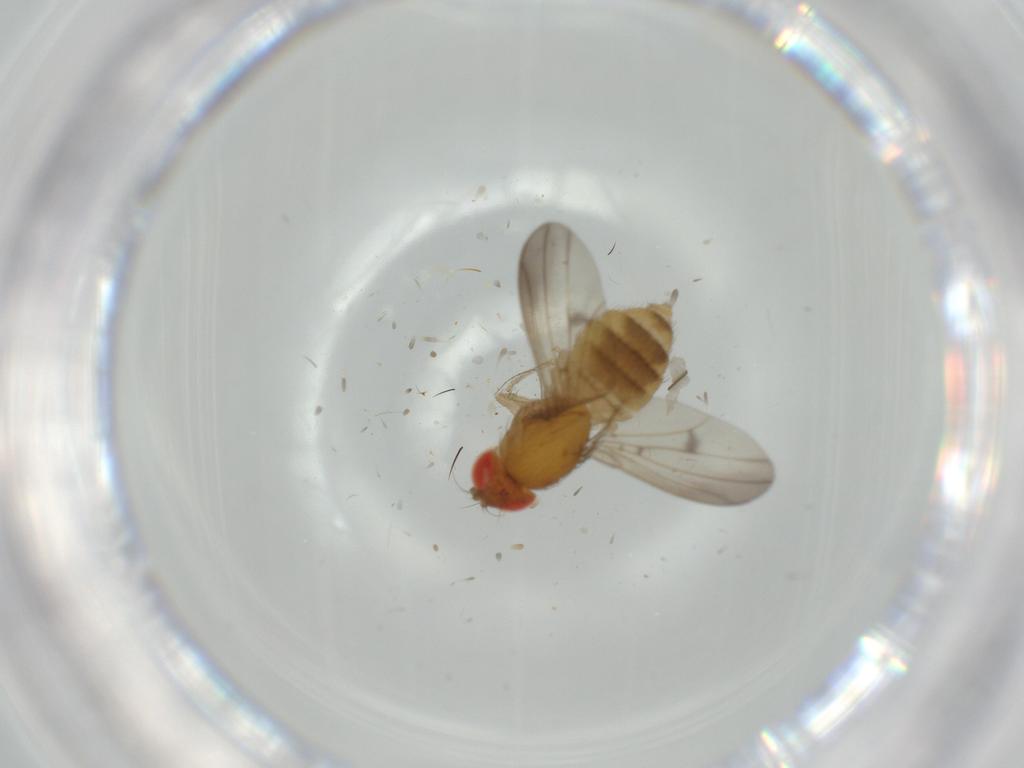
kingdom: Animalia
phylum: Arthropoda
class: Insecta
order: Diptera
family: Drosophilidae
